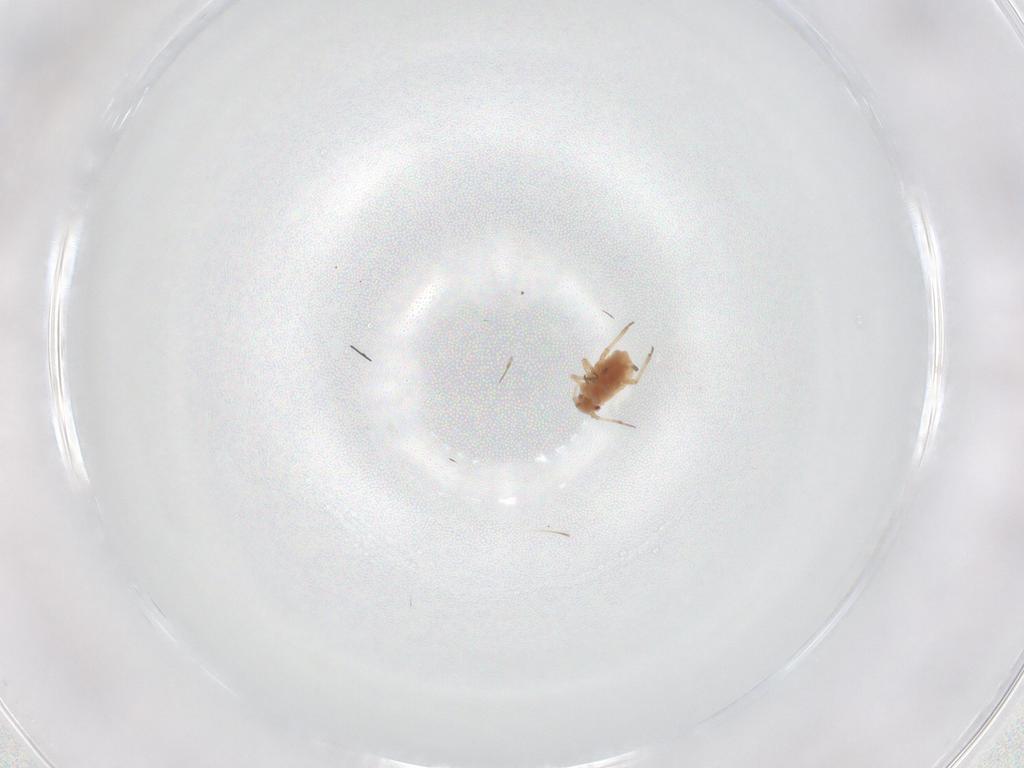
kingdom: Animalia
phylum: Arthropoda
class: Insecta
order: Hemiptera
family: Aphididae
